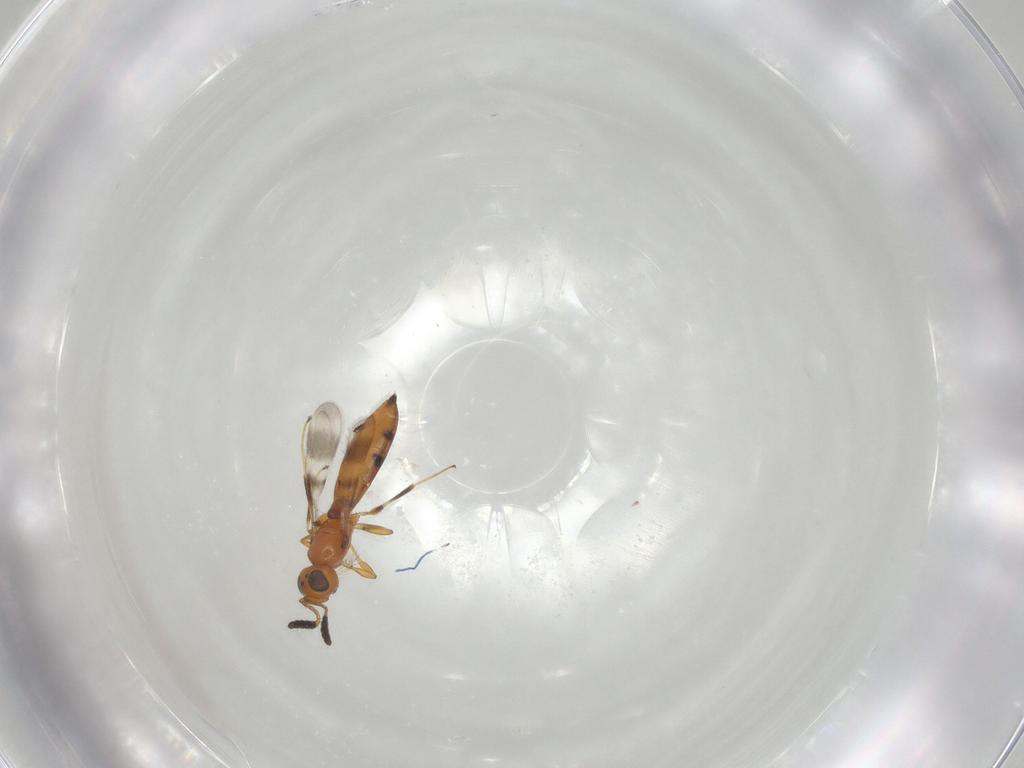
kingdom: Animalia
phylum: Arthropoda
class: Insecta
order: Hymenoptera
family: Scelionidae
